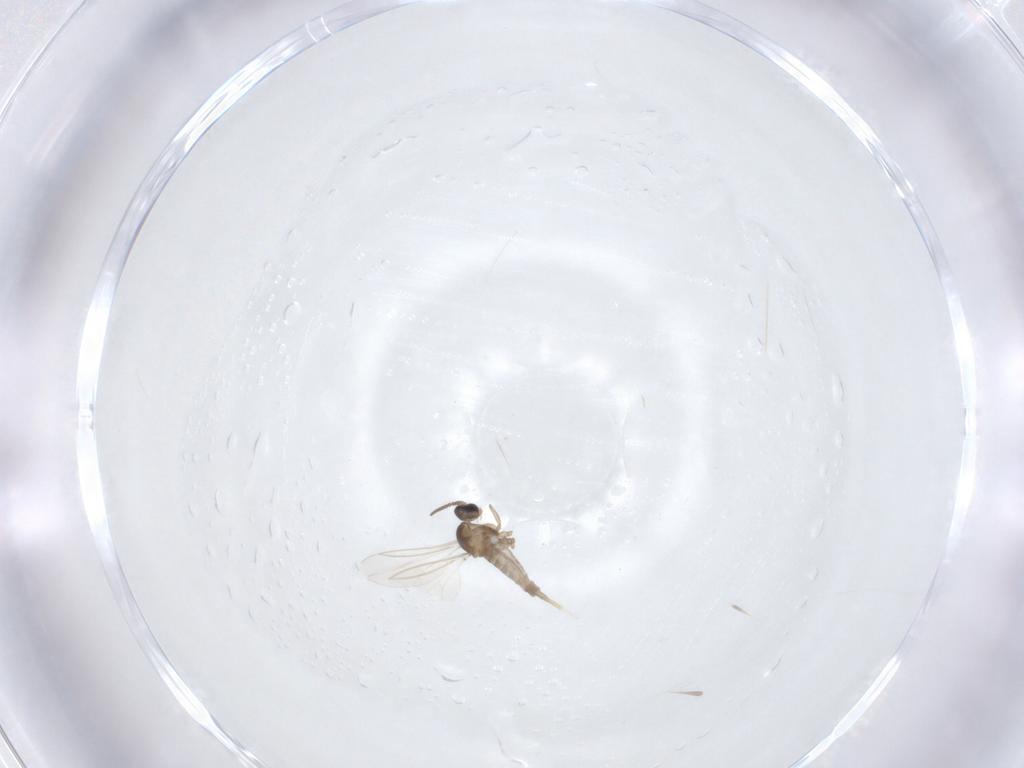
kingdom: Animalia
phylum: Arthropoda
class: Insecta
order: Diptera
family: Cecidomyiidae
